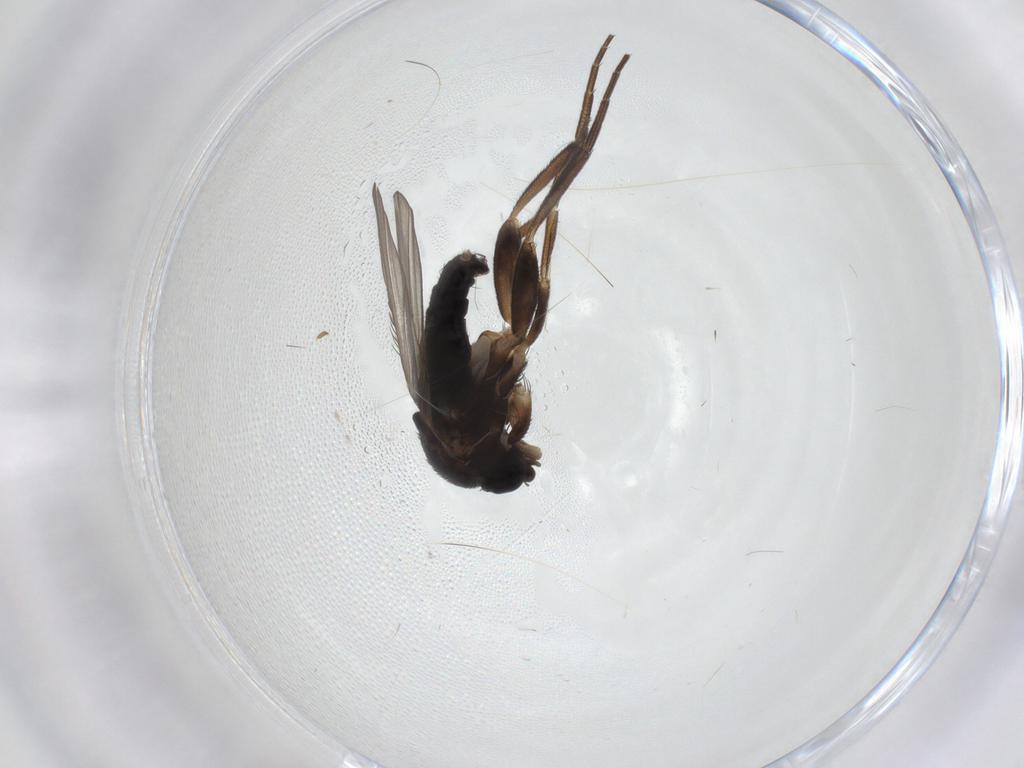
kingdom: Animalia
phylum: Arthropoda
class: Insecta
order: Diptera
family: Phoridae
